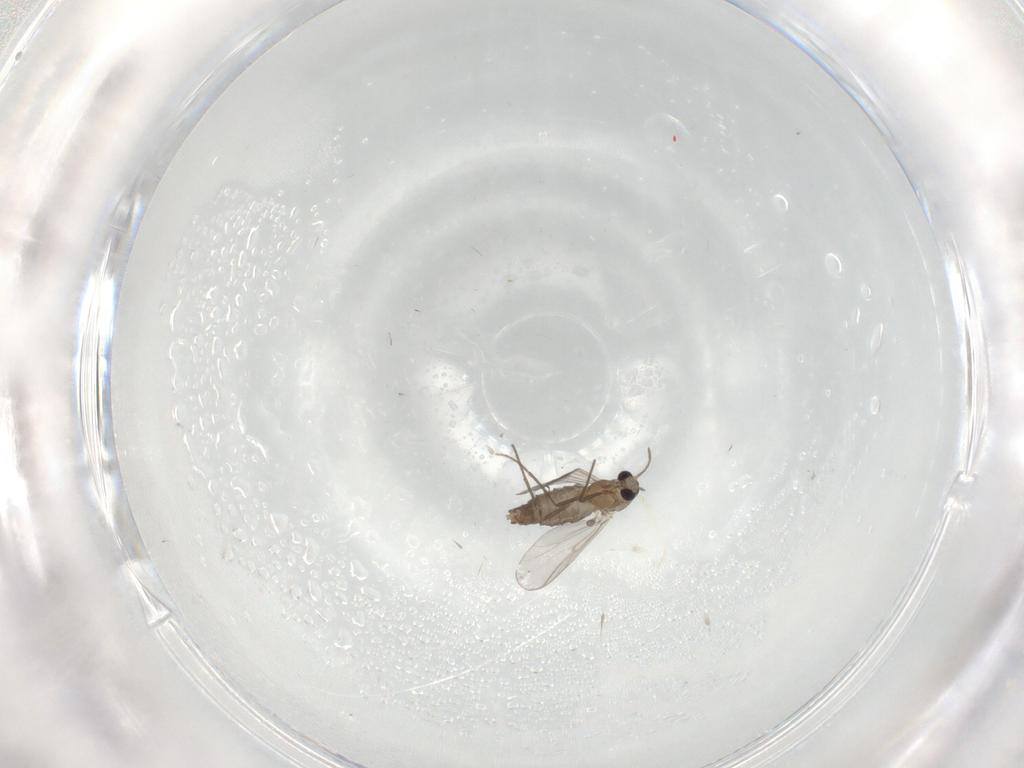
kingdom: Animalia
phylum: Arthropoda
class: Insecta
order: Diptera
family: Chironomidae
